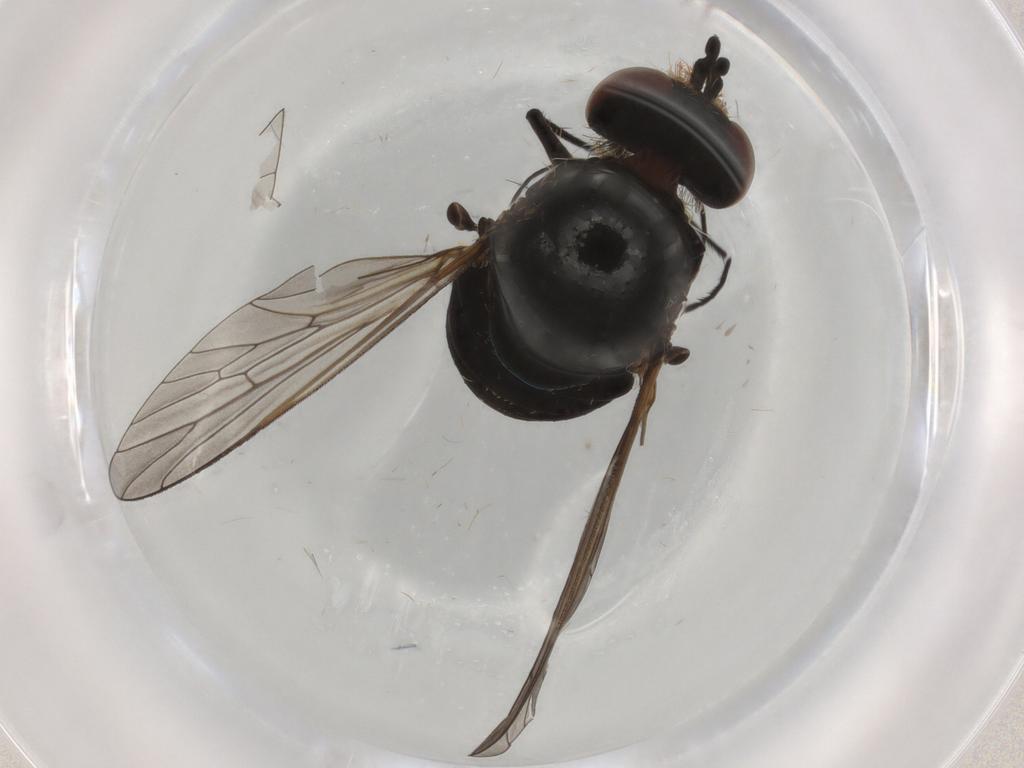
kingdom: Animalia
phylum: Arthropoda
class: Insecta
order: Diptera
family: Bombyliidae
